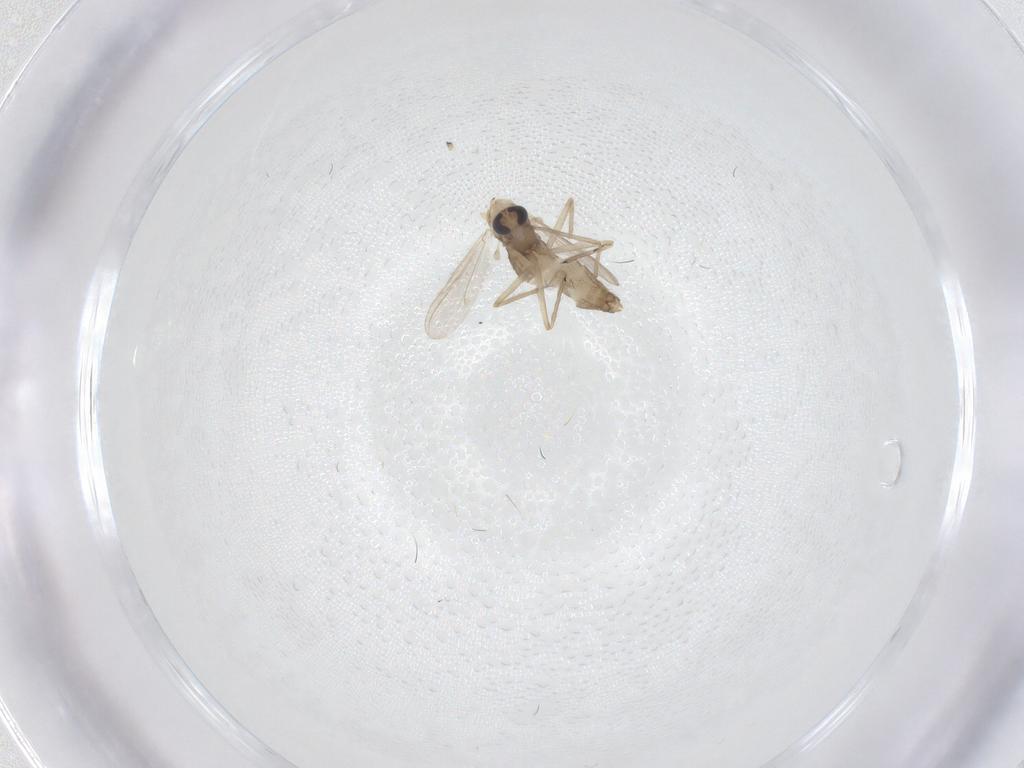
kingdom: Animalia
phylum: Arthropoda
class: Insecta
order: Diptera
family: Chironomidae
